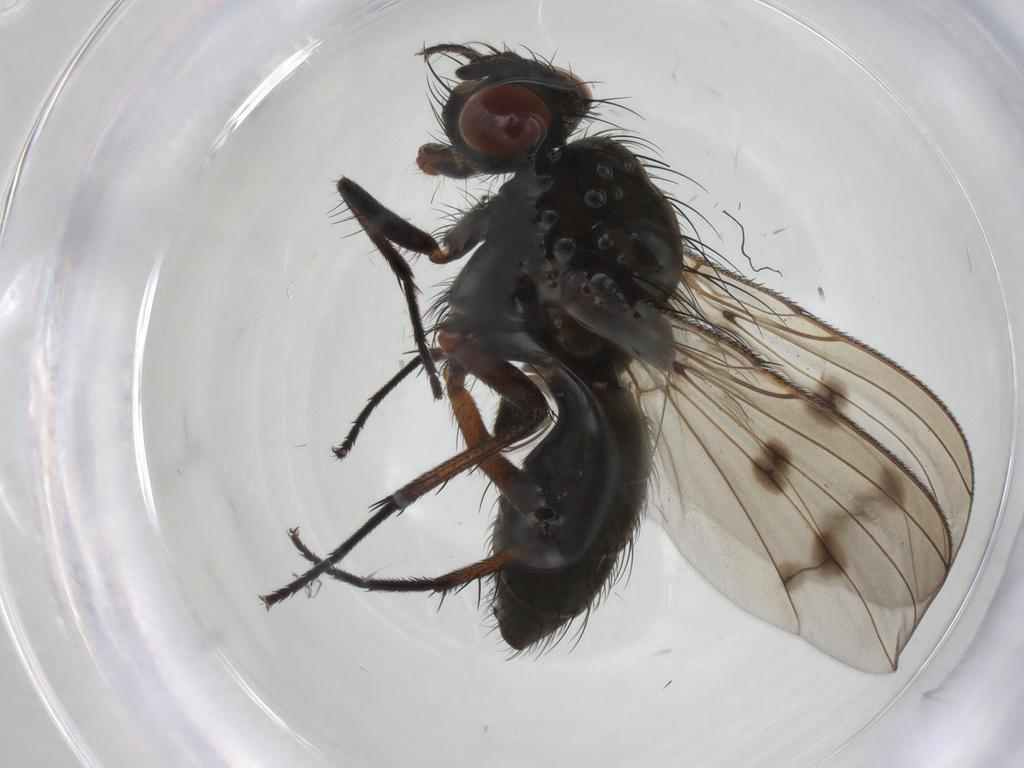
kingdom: Animalia
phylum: Arthropoda
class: Insecta
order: Diptera
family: Anthomyiidae
